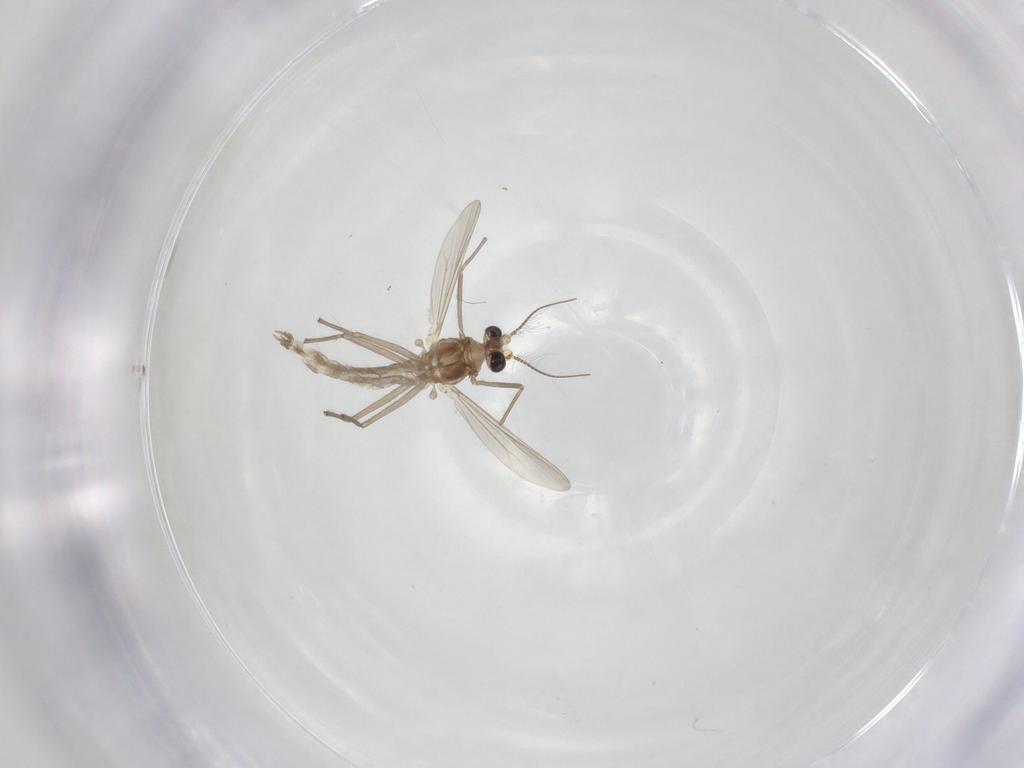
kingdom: Animalia
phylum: Arthropoda
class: Insecta
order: Diptera
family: Chironomidae
